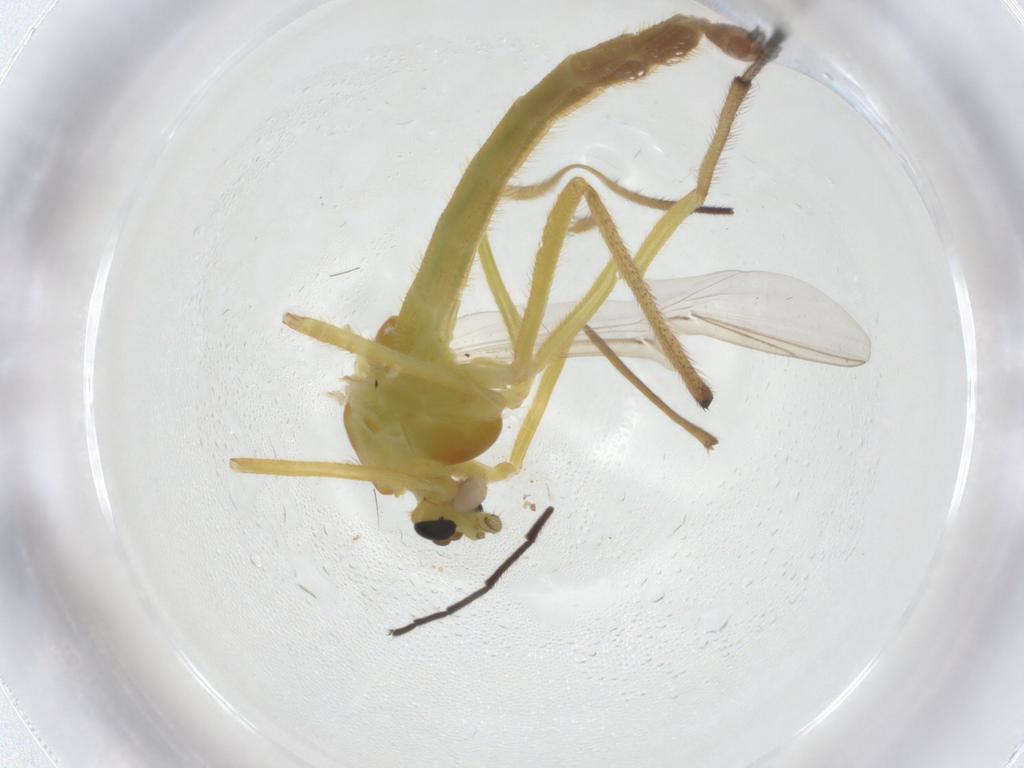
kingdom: Animalia
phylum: Arthropoda
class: Insecta
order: Diptera
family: Chironomidae
